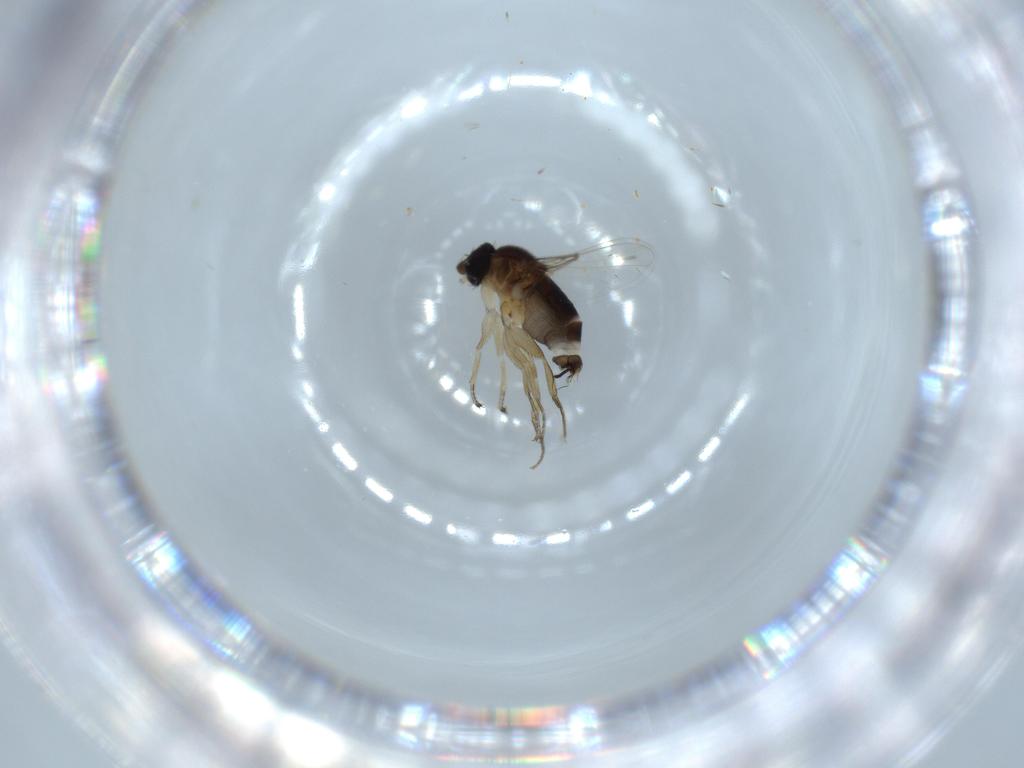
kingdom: Animalia
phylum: Arthropoda
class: Insecta
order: Diptera
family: Phoridae
